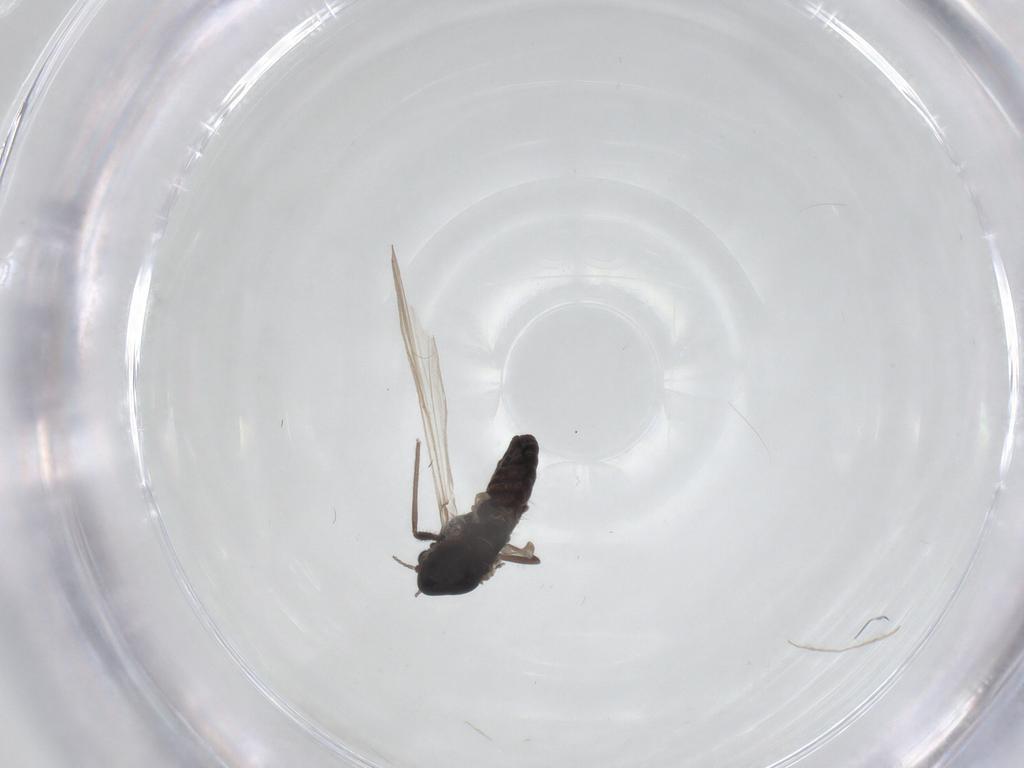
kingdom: Animalia
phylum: Arthropoda
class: Insecta
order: Diptera
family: Chironomidae
